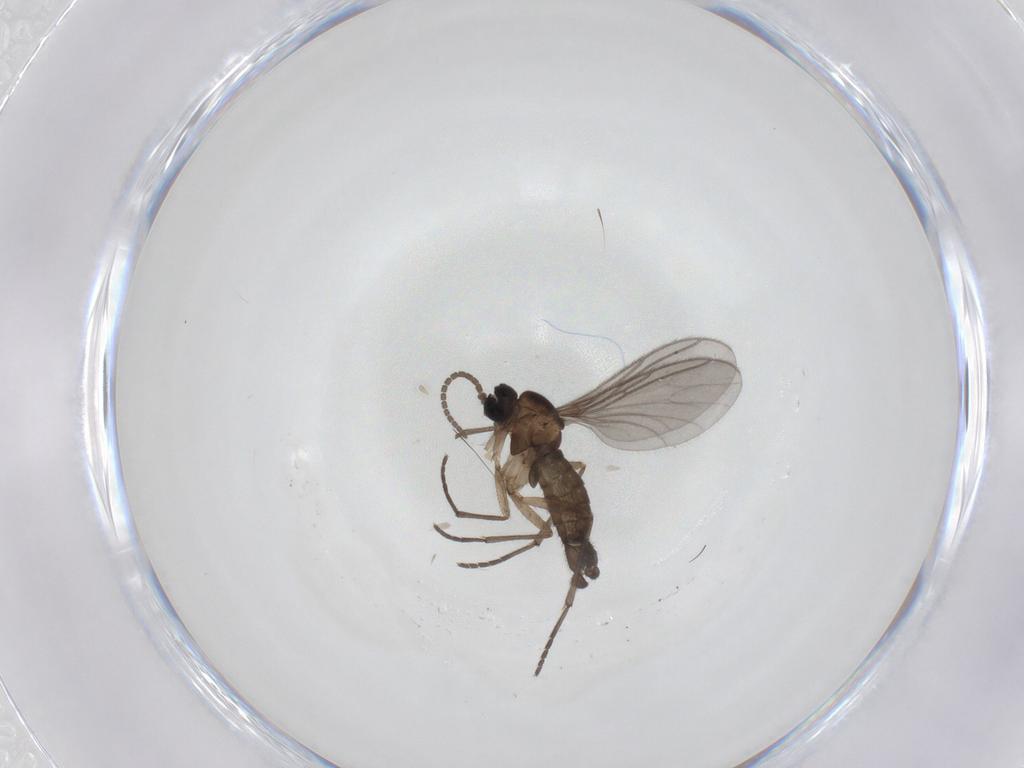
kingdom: Animalia
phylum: Arthropoda
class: Insecta
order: Diptera
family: Sciaridae
